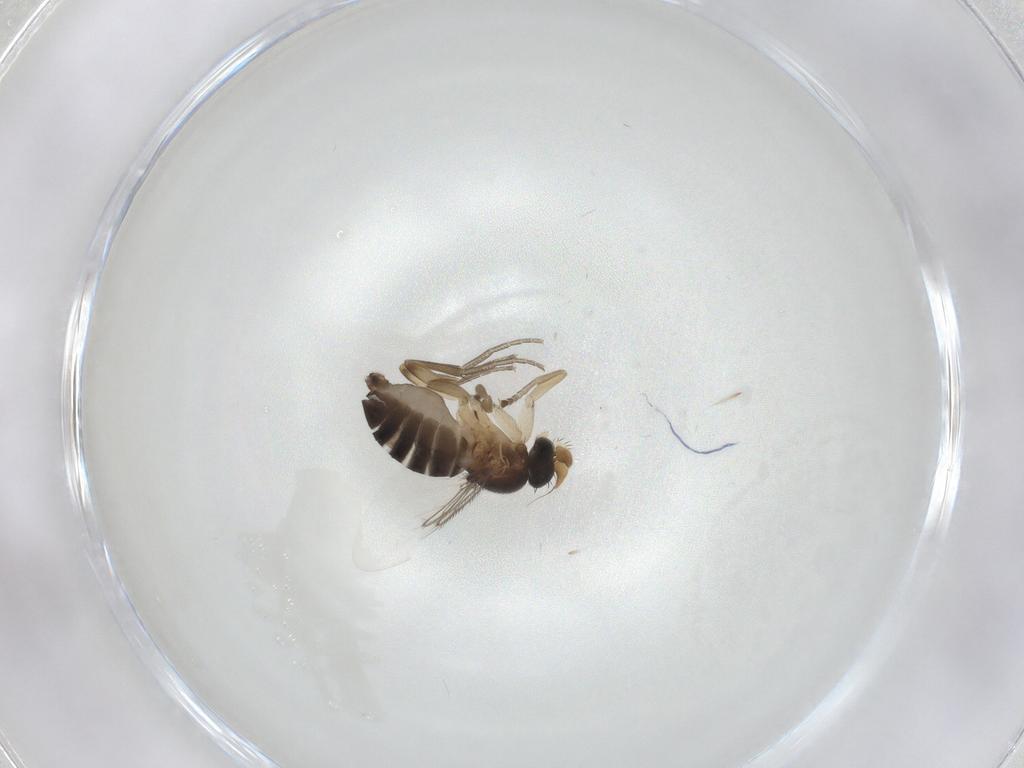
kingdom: Animalia
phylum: Arthropoda
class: Insecta
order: Diptera
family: Phoridae
